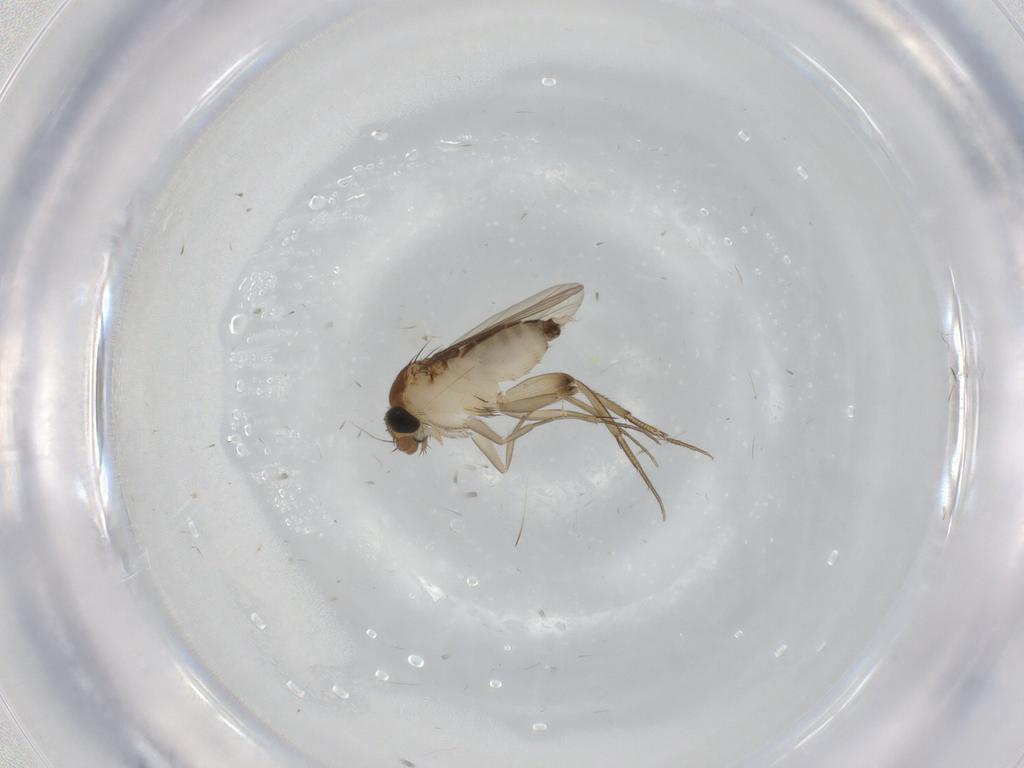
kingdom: Animalia
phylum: Arthropoda
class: Insecta
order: Diptera
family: Phoridae
